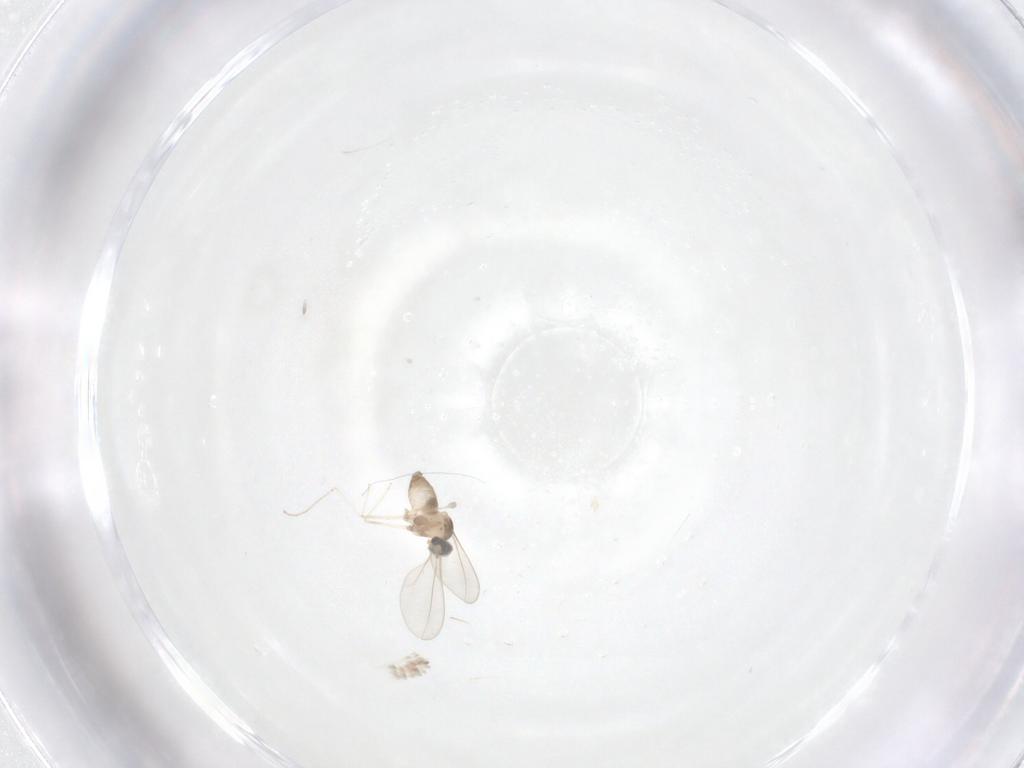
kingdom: Animalia
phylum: Arthropoda
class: Insecta
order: Diptera
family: Cecidomyiidae
